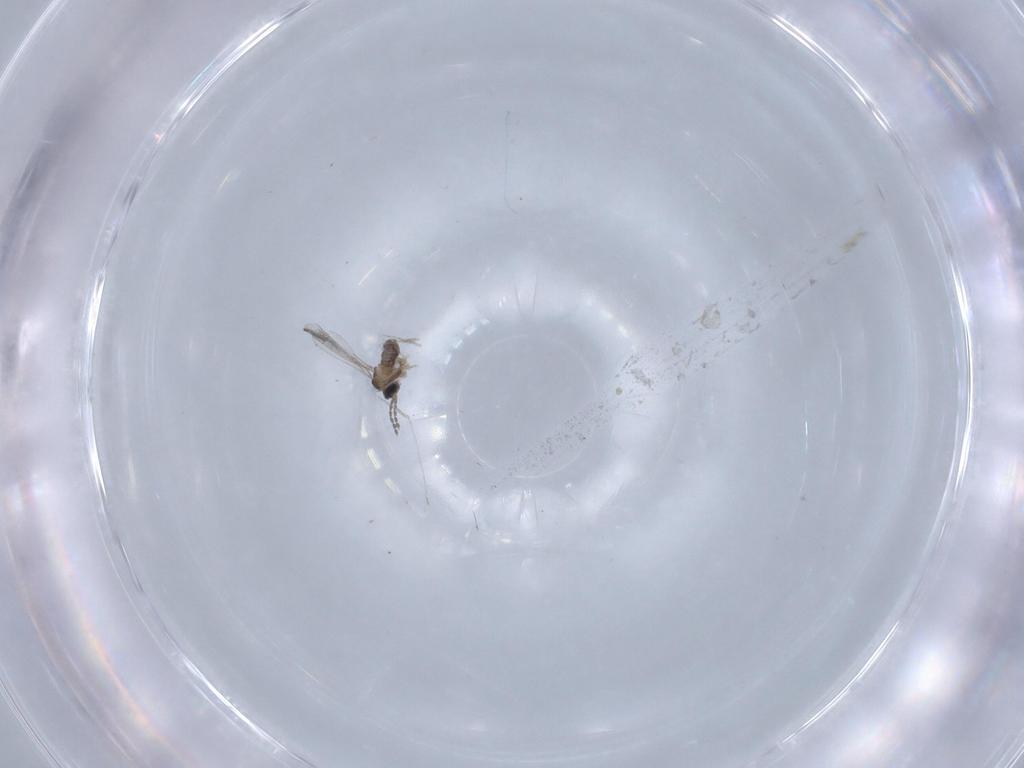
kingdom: Animalia
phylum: Arthropoda
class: Insecta
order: Diptera
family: Cecidomyiidae
